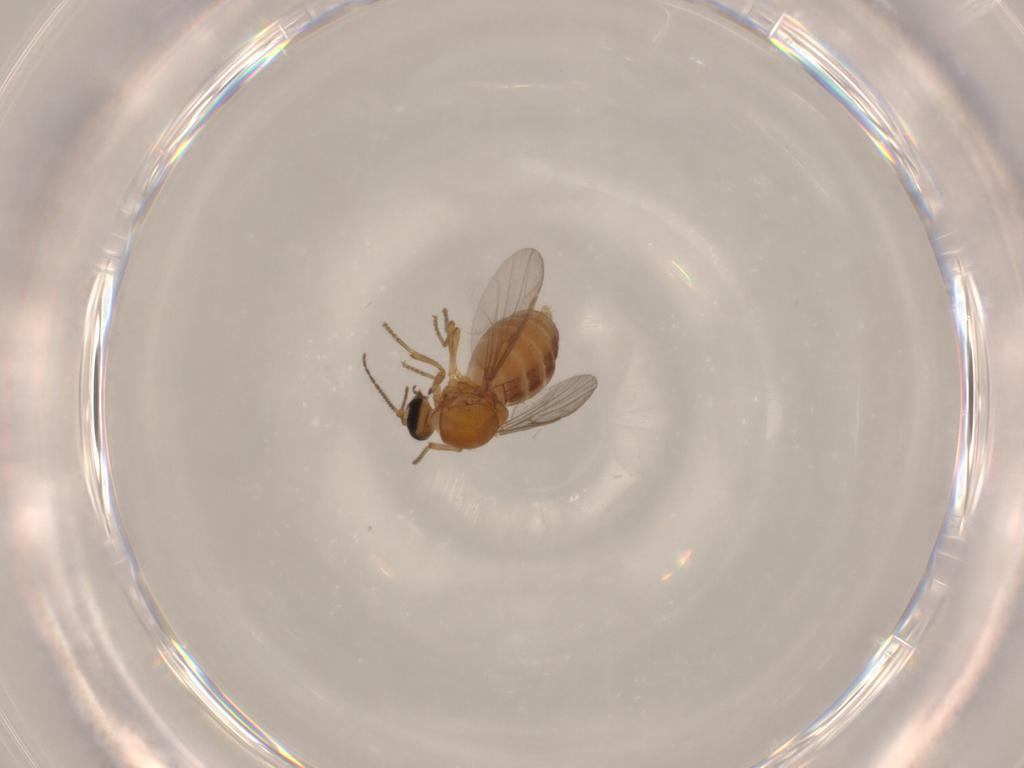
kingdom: Animalia
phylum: Arthropoda
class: Insecta
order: Diptera
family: Ceratopogonidae
